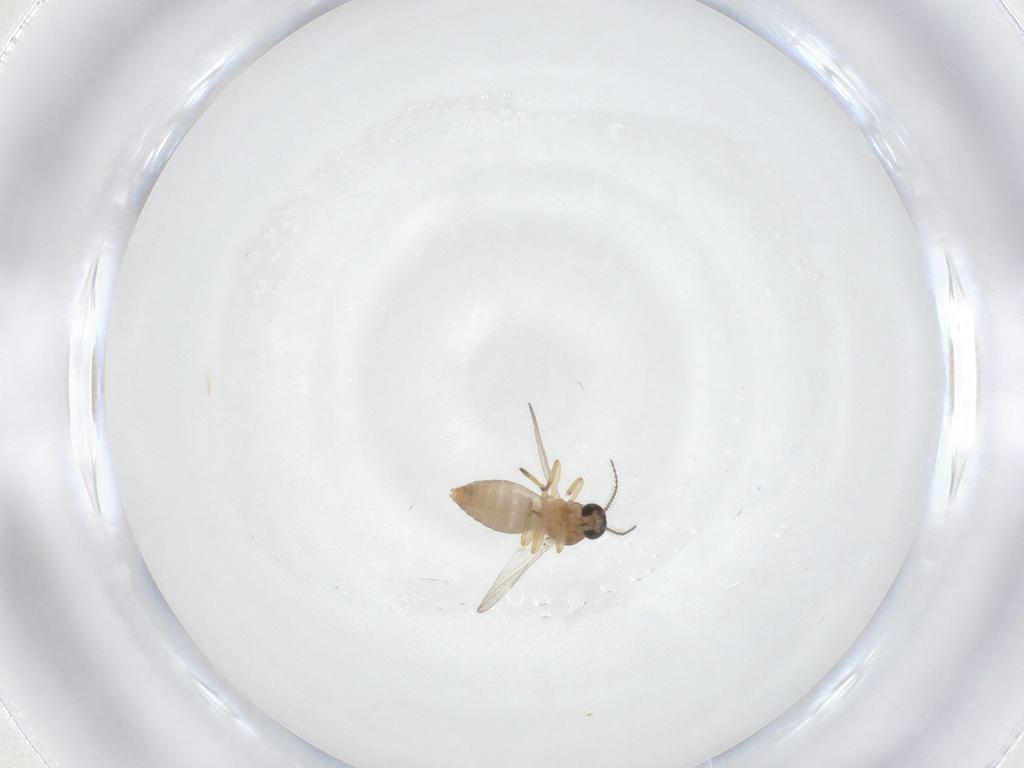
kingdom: Animalia
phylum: Arthropoda
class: Insecta
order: Diptera
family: Ceratopogonidae
